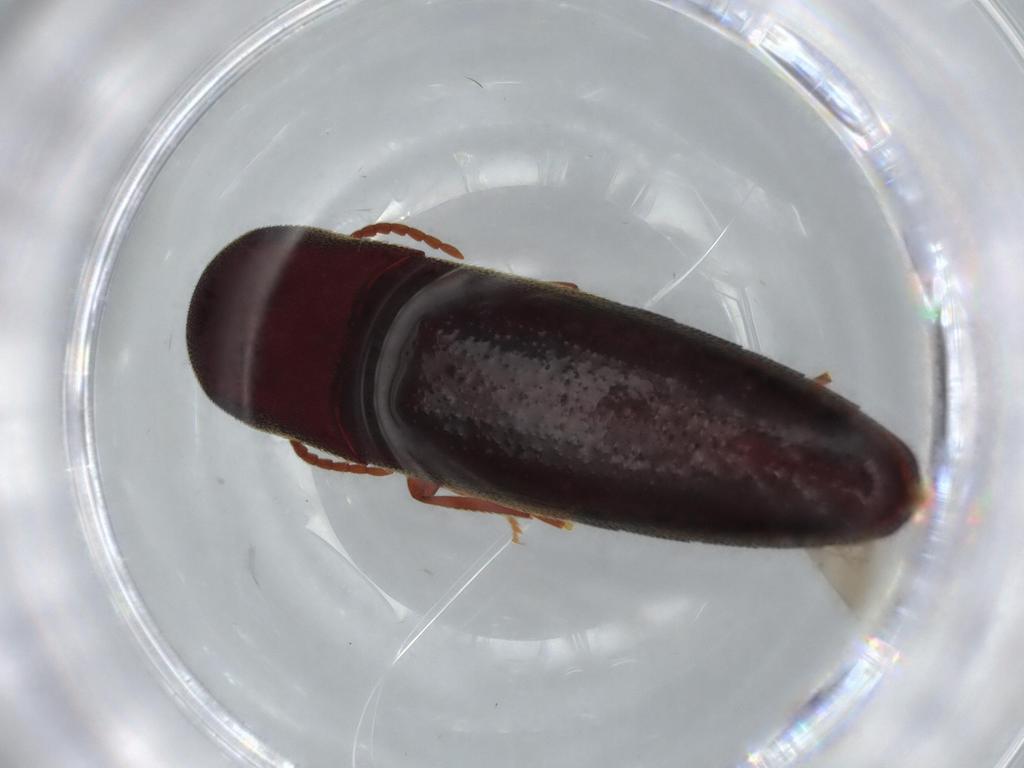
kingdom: Animalia
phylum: Arthropoda
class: Insecta
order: Coleoptera
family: Eucnemidae
